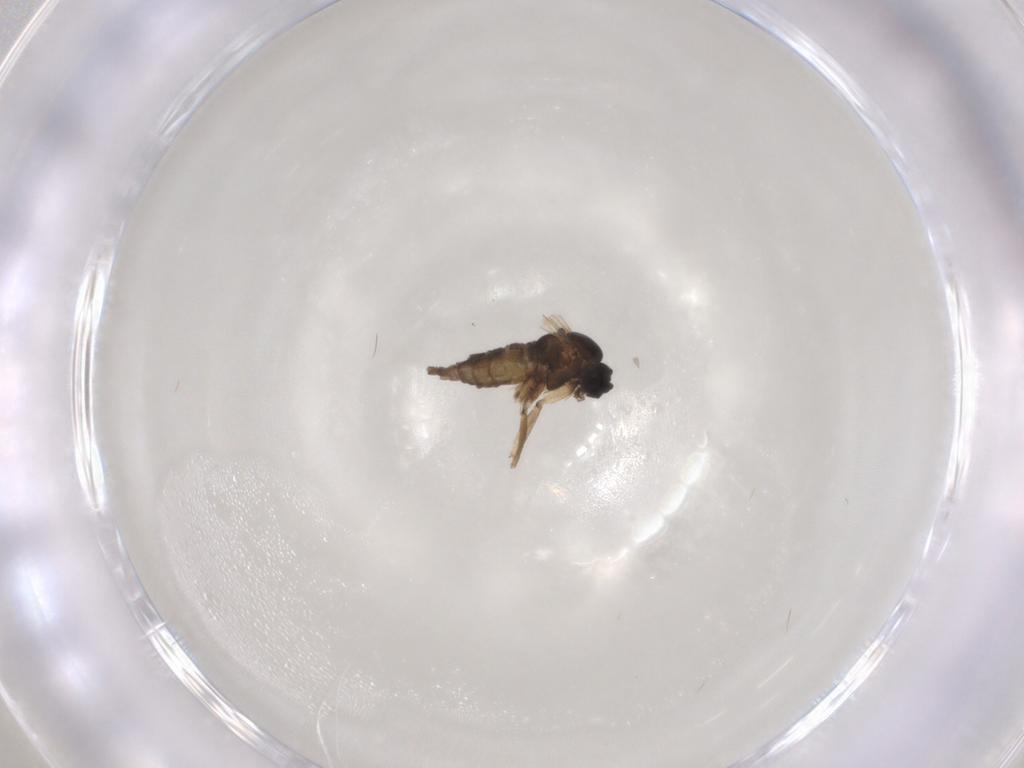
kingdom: Animalia
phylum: Arthropoda
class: Insecta
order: Diptera
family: Sciaridae
